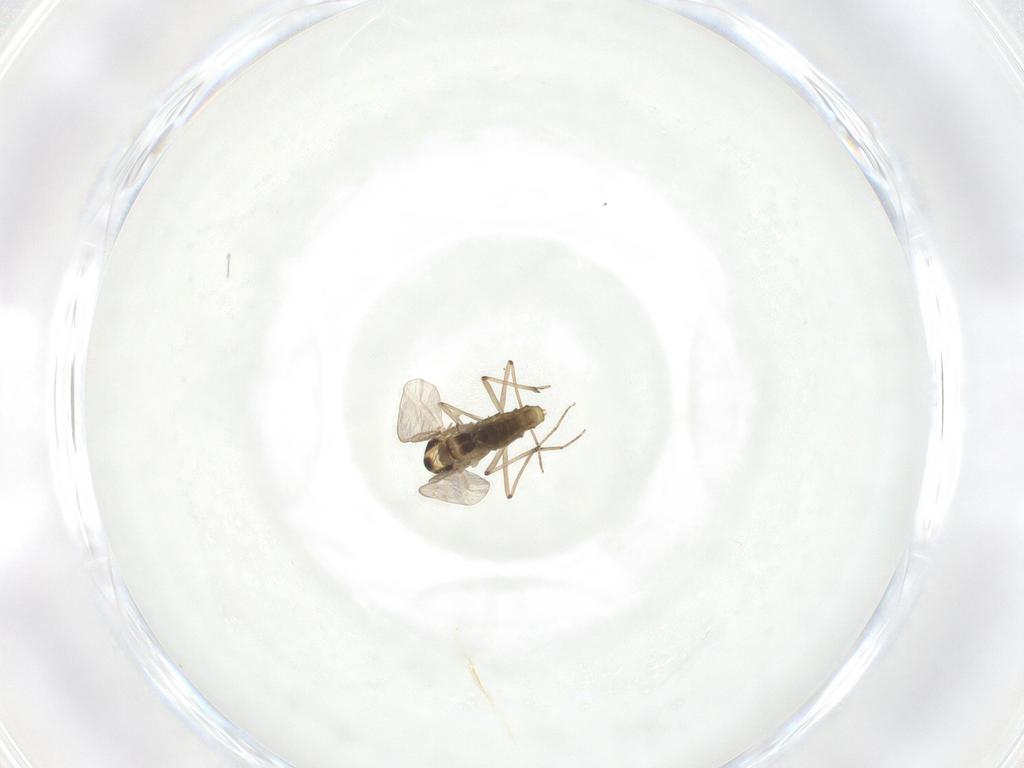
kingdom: Animalia
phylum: Arthropoda
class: Insecta
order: Diptera
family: Chironomidae
